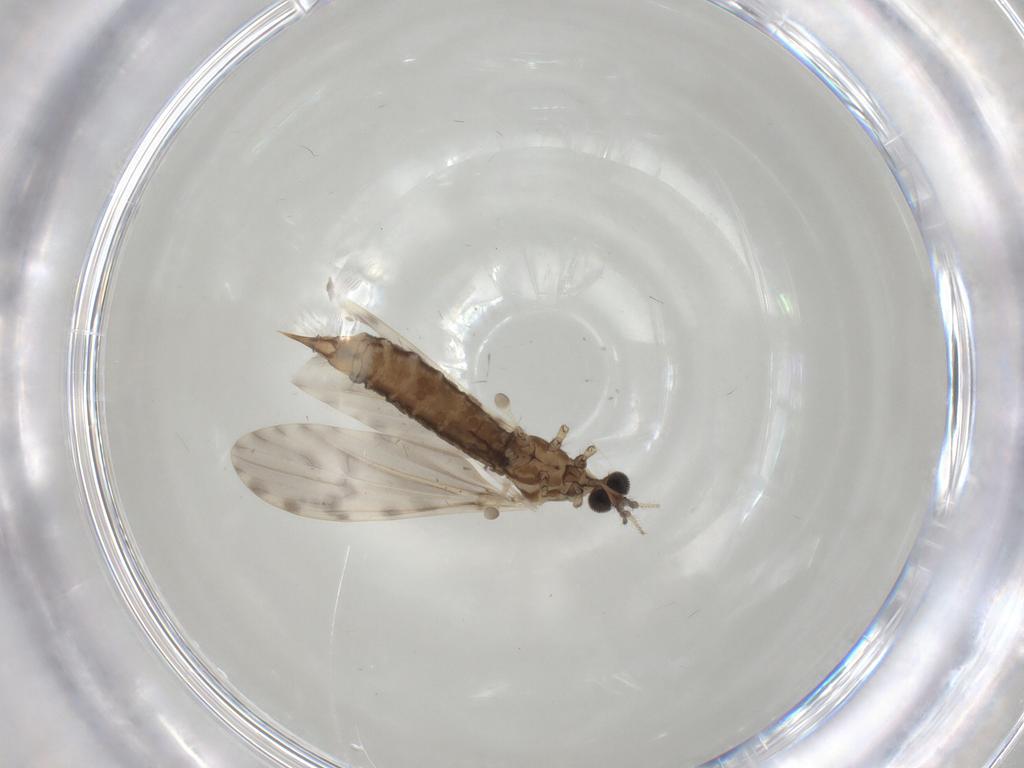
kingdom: Animalia
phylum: Arthropoda
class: Insecta
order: Diptera
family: Limoniidae
